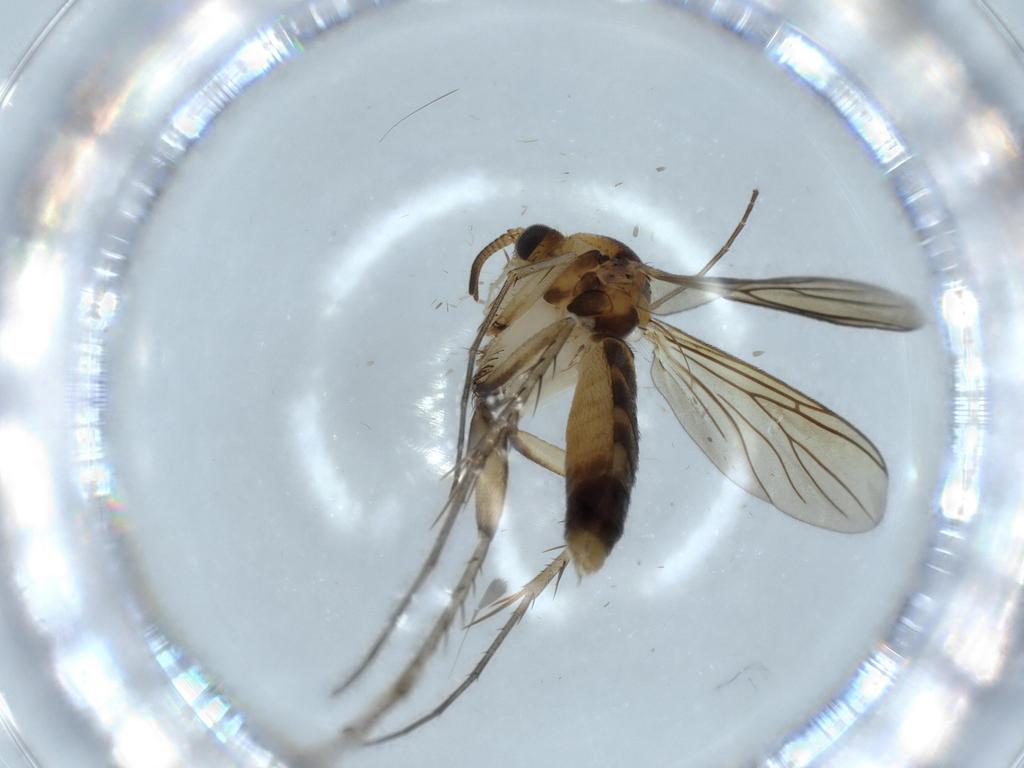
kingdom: Animalia
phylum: Arthropoda
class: Insecta
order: Diptera
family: Mycetophilidae
